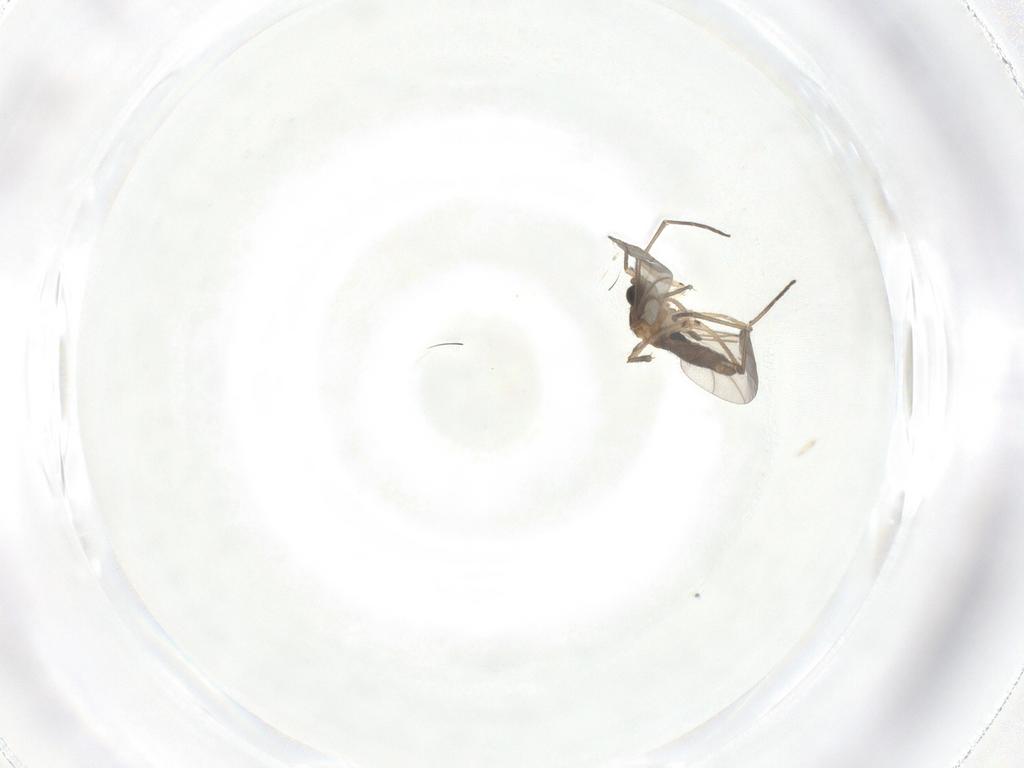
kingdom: Animalia
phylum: Arthropoda
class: Insecta
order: Diptera
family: Sciaridae
